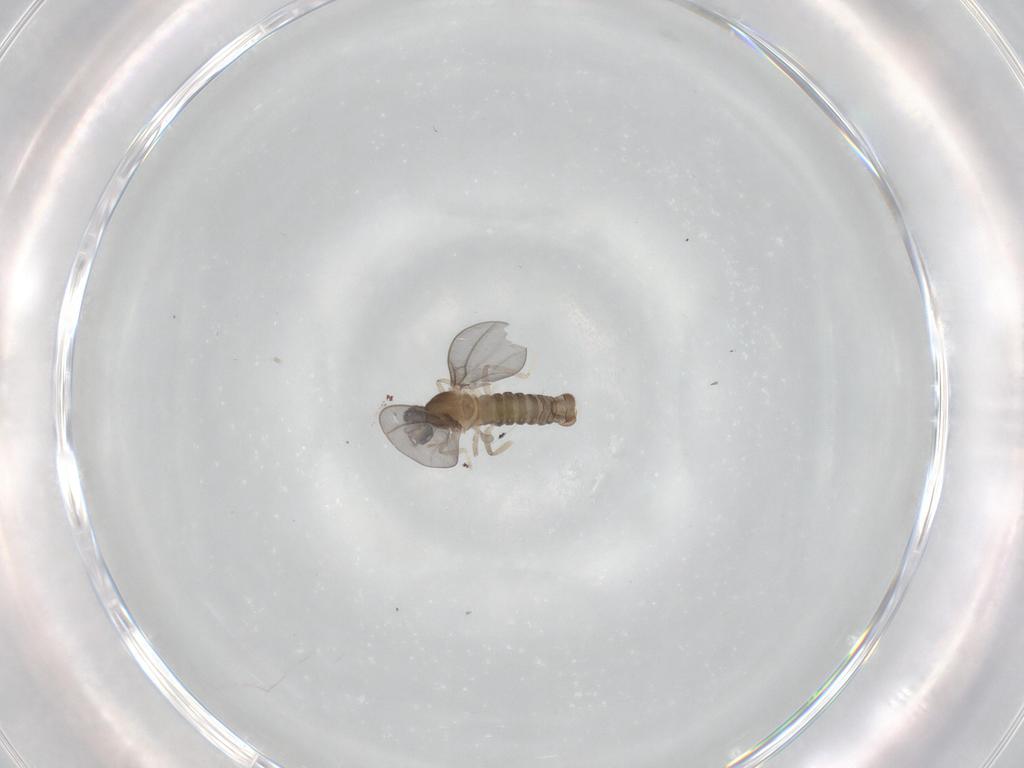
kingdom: Animalia
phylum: Arthropoda
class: Insecta
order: Diptera
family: Cecidomyiidae
